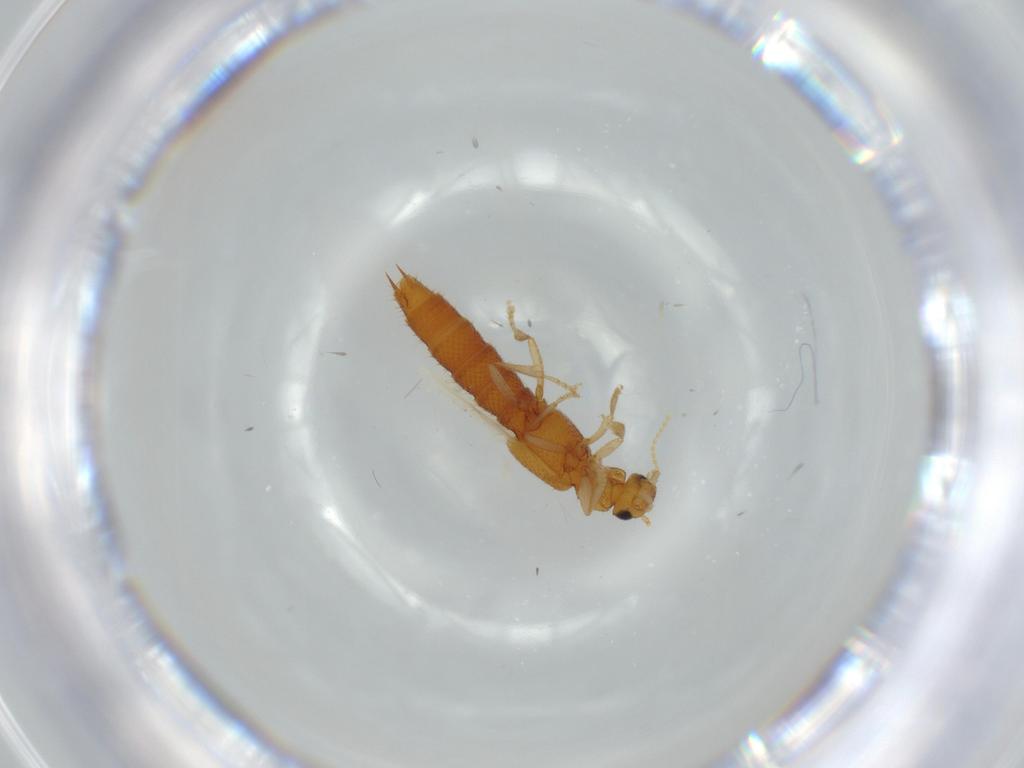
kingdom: Animalia
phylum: Arthropoda
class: Insecta
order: Coleoptera
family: Staphylinidae
